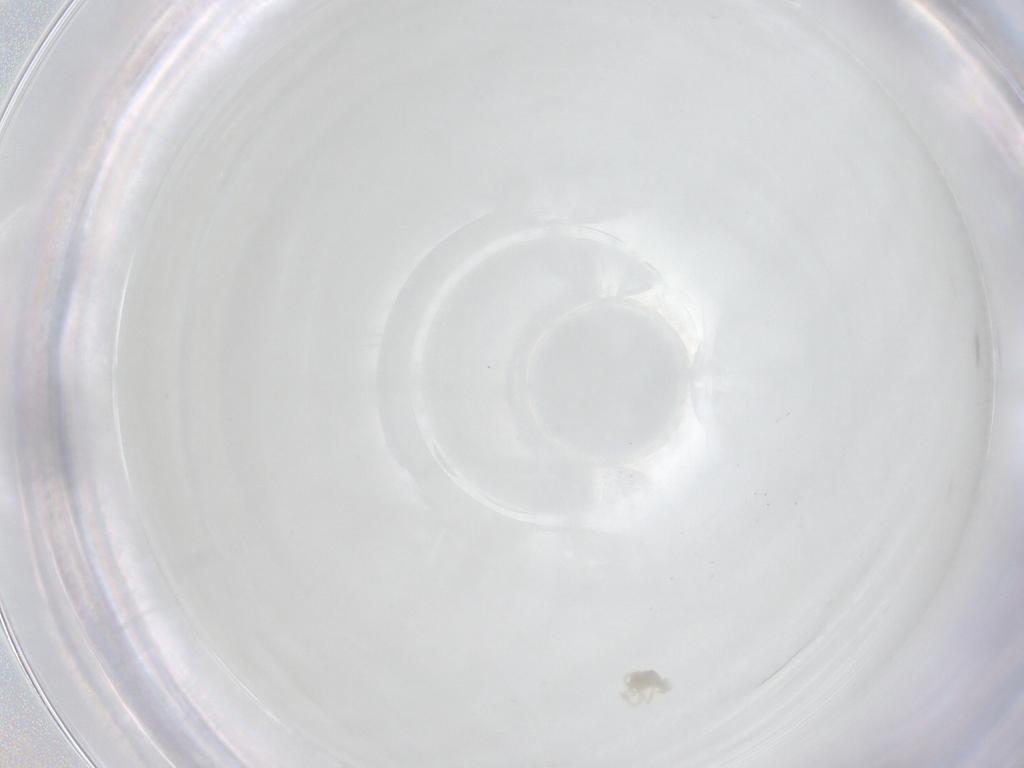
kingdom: Animalia
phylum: Arthropoda
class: Arachnida
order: Trombidiformes
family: Anystidae
